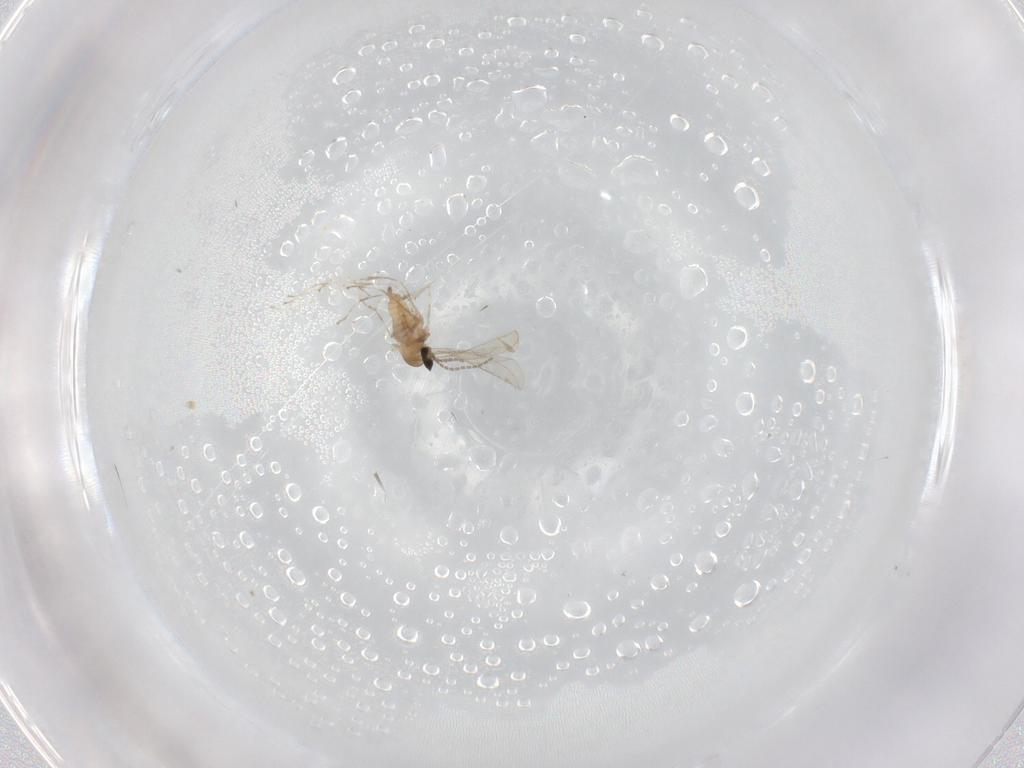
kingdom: Animalia
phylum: Arthropoda
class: Insecta
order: Diptera
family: Cecidomyiidae
